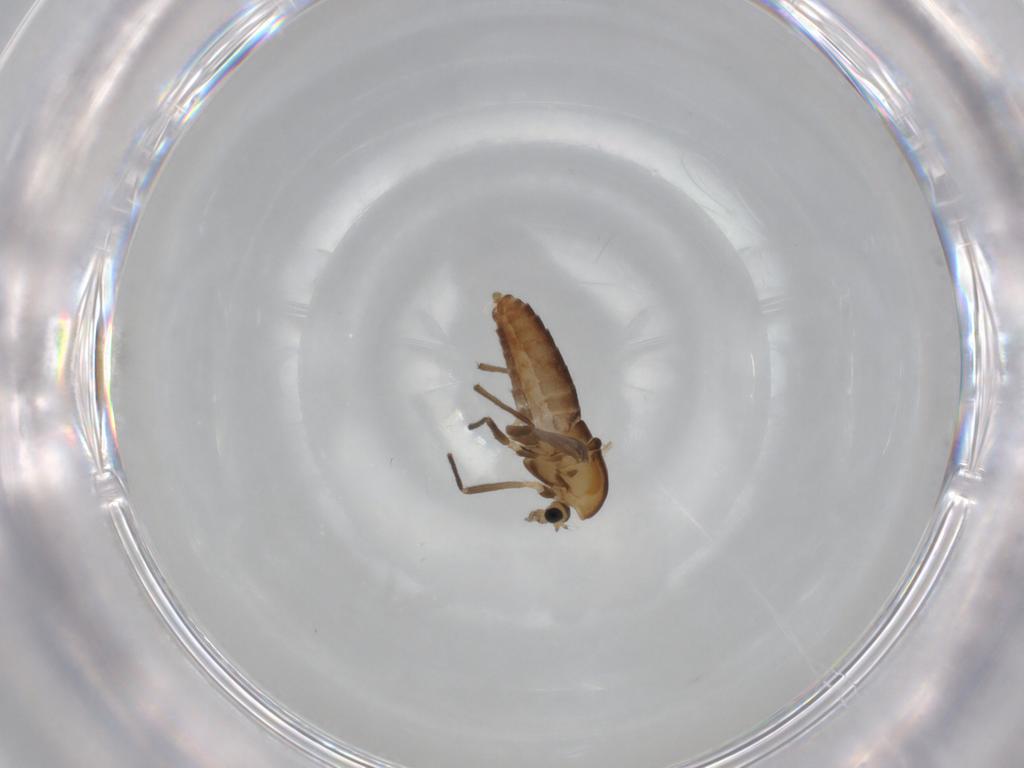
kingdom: Animalia
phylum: Arthropoda
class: Insecta
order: Diptera
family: Chironomidae
